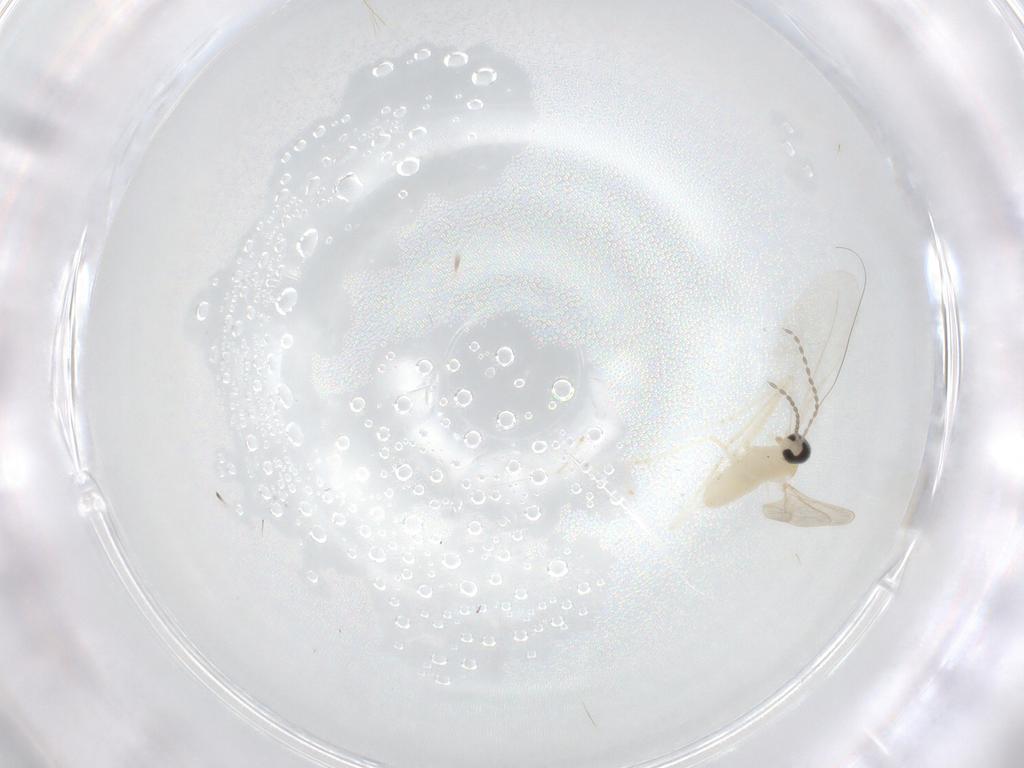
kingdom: Animalia
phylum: Arthropoda
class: Insecta
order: Diptera
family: Cecidomyiidae
